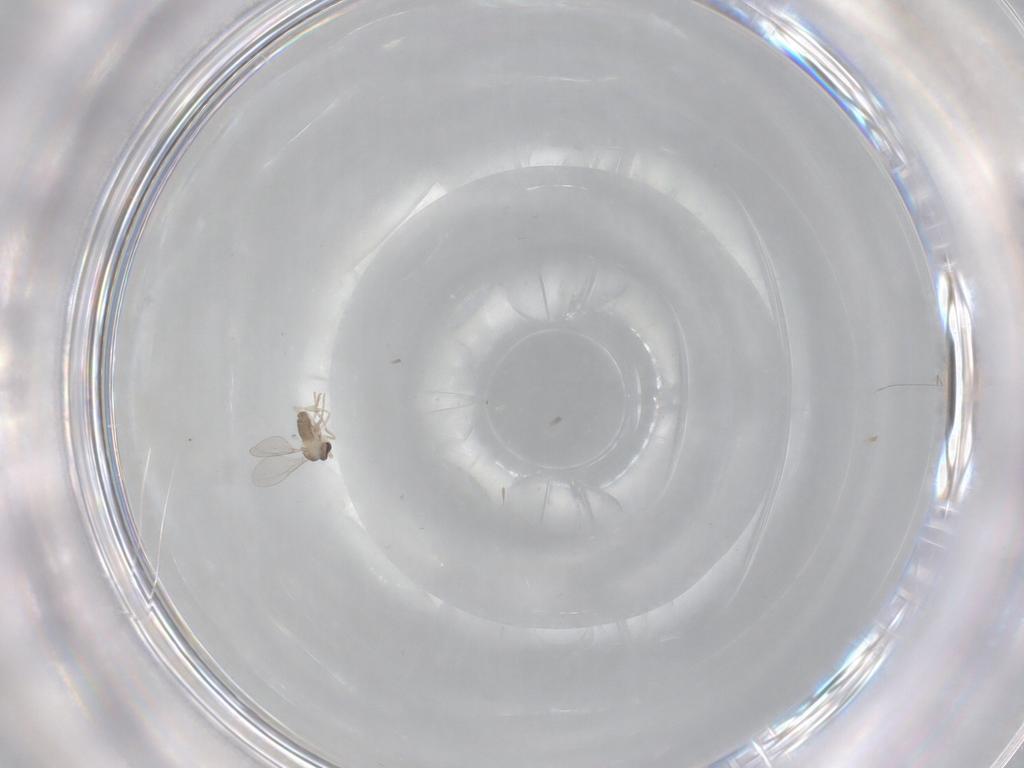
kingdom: Animalia
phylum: Arthropoda
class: Insecta
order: Diptera
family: Cecidomyiidae
